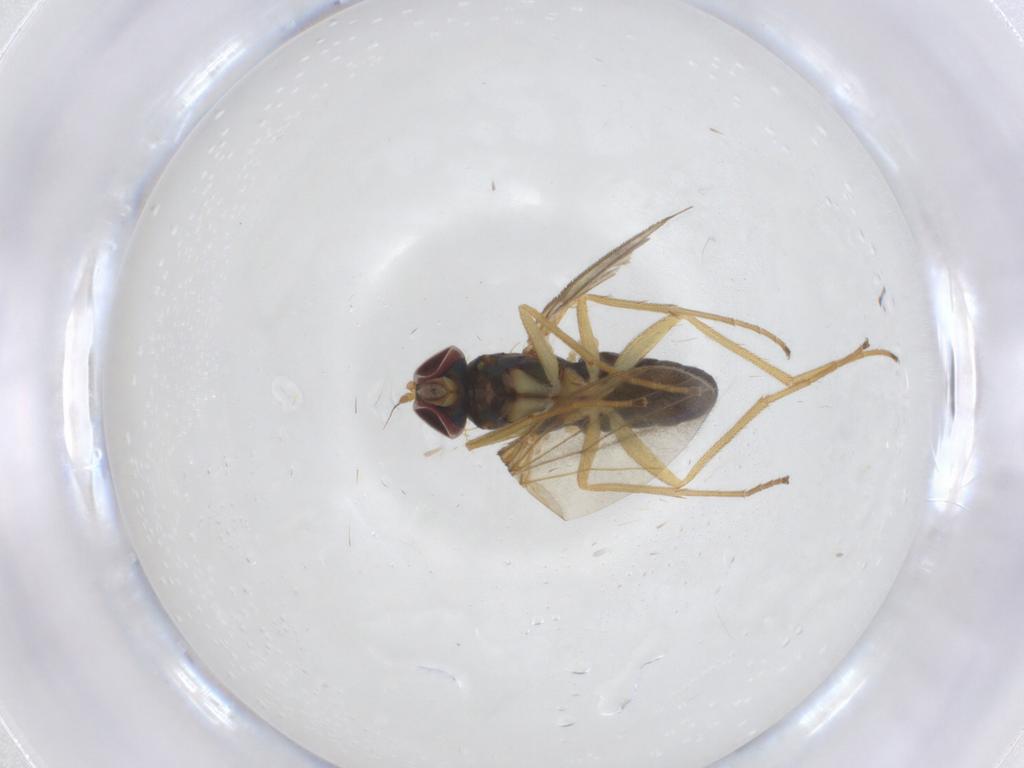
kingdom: Animalia
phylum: Arthropoda
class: Insecta
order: Diptera
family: Dolichopodidae
